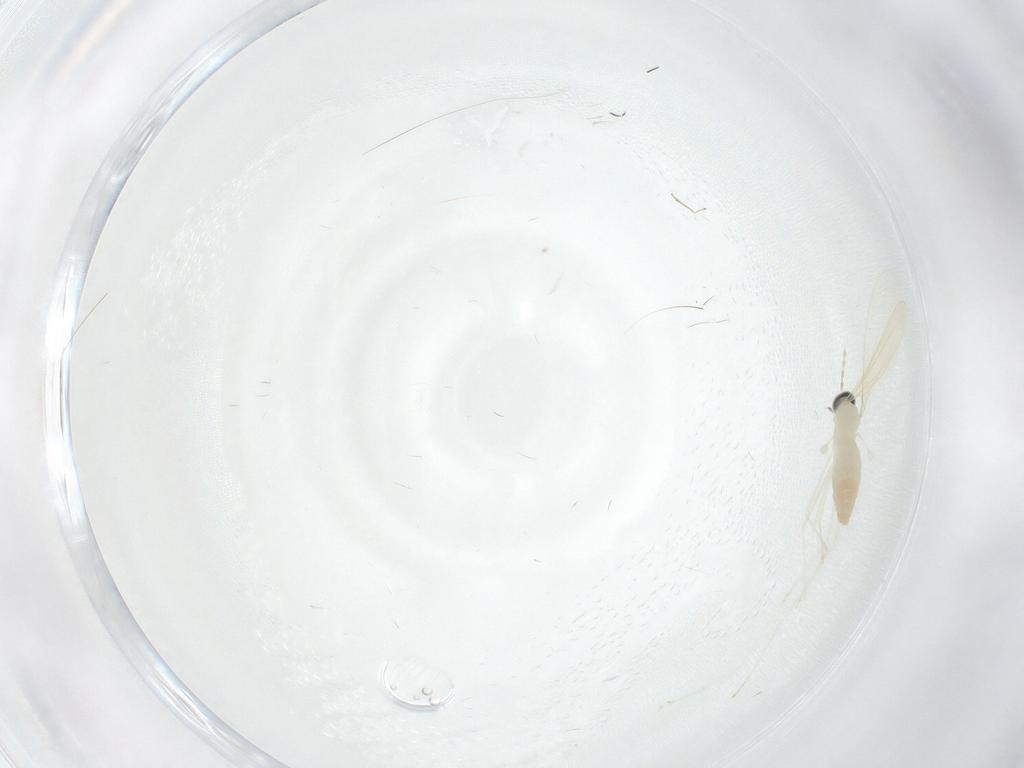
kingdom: Animalia
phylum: Arthropoda
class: Insecta
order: Diptera
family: Cecidomyiidae
